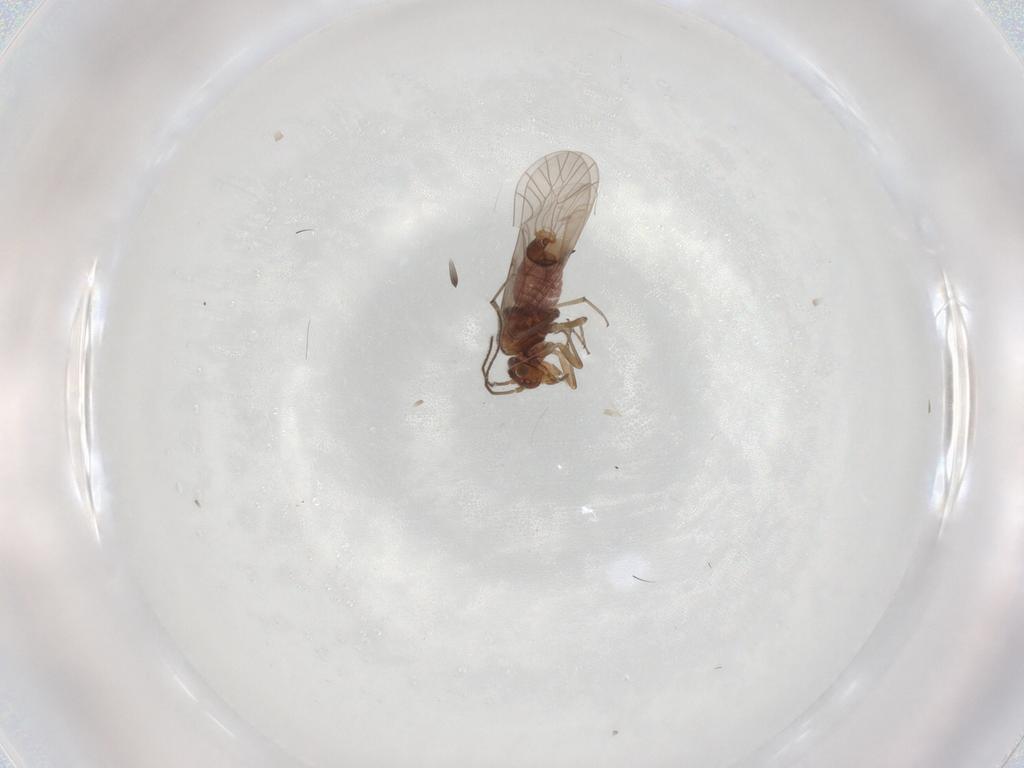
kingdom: Animalia
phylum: Arthropoda
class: Insecta
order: Psocodea
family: Lachesillidae
